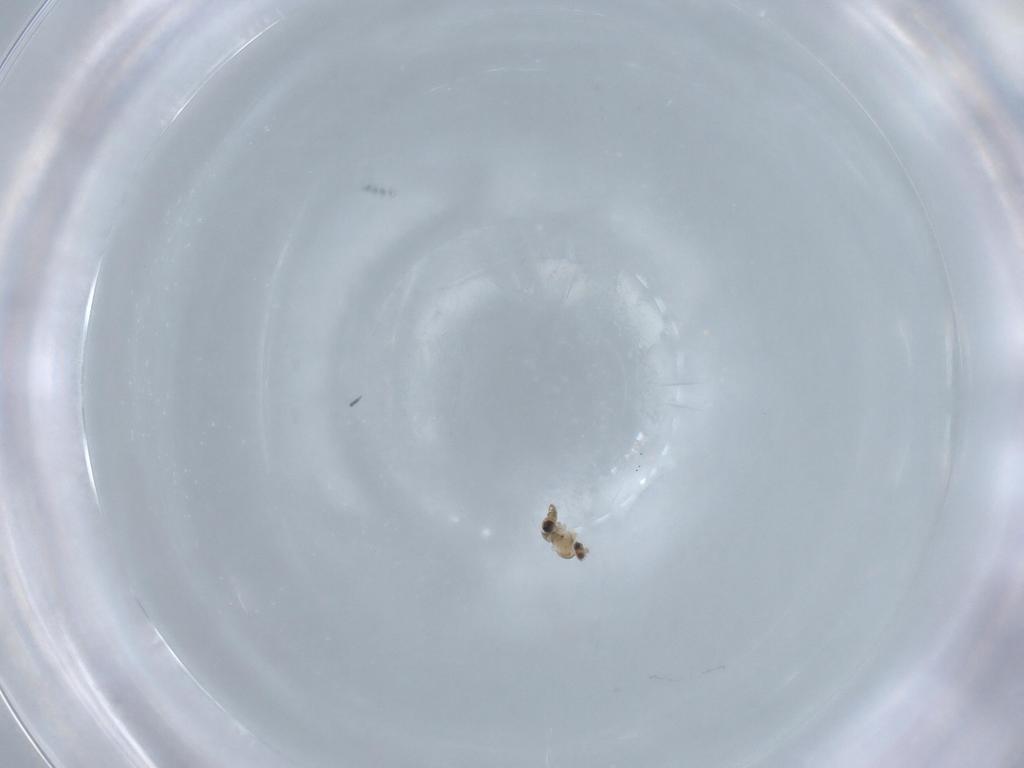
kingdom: Animalia
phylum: Arthropoda
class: Insecta
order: Diptera
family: Cecidomyiidae
